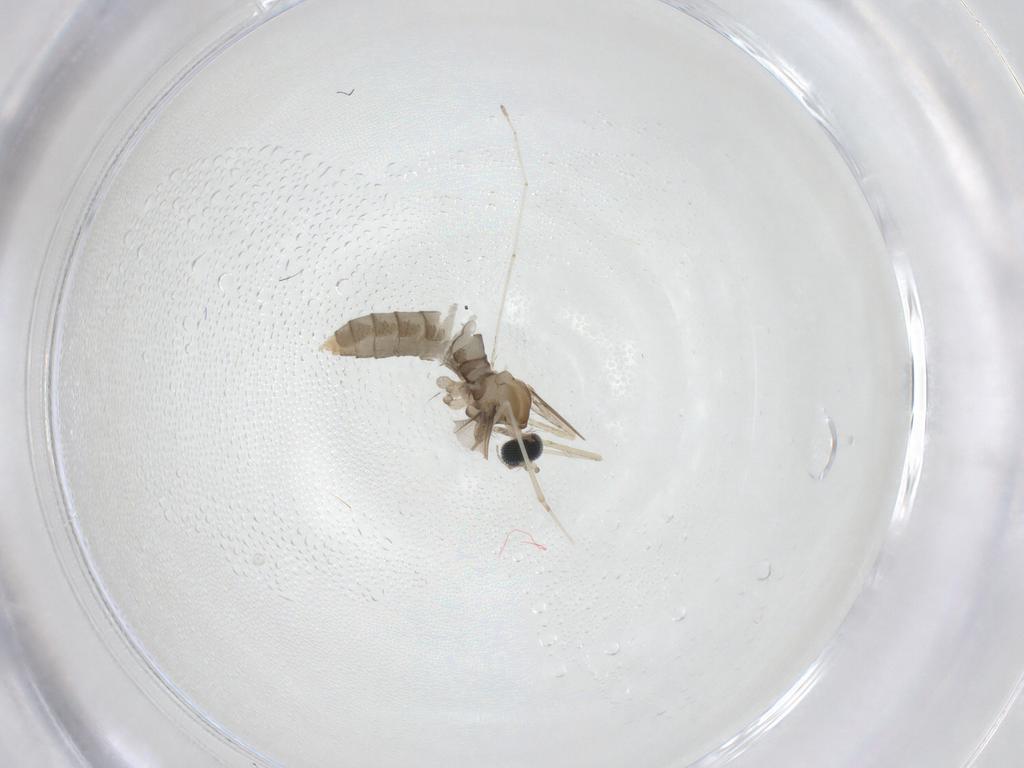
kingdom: Animalia
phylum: Arthropoda
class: Insecta
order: Diptera
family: Cecidomyiidae
